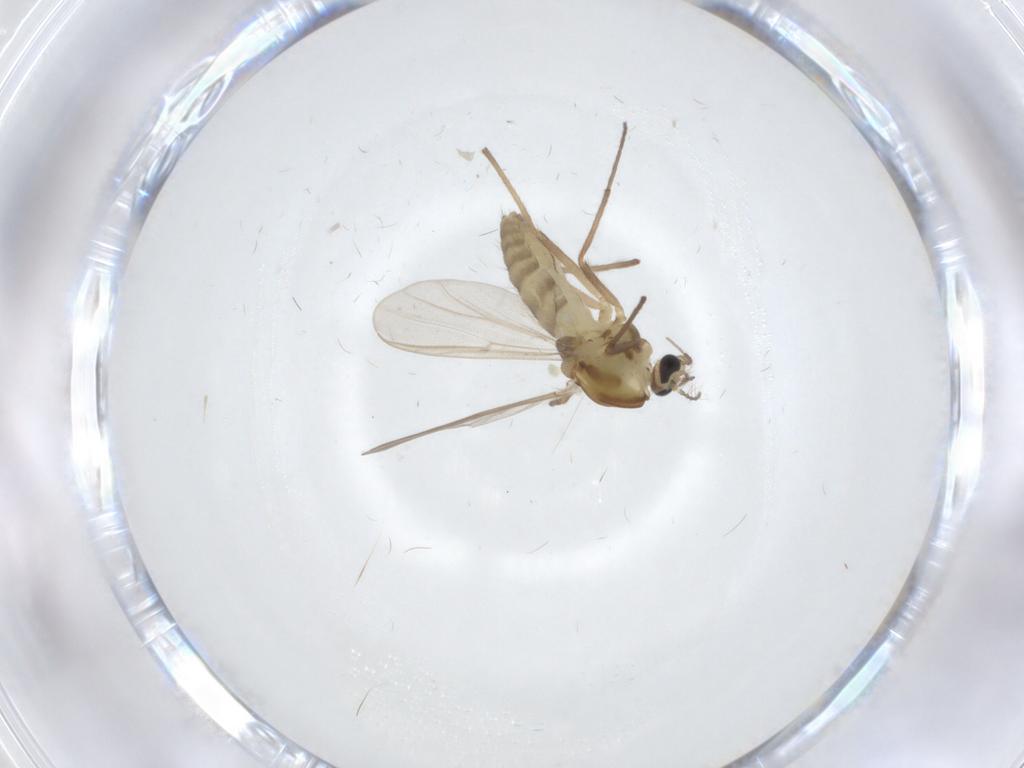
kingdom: Animalia
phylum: Arthropoda
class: Insecta
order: Diptera
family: Chironomidae
